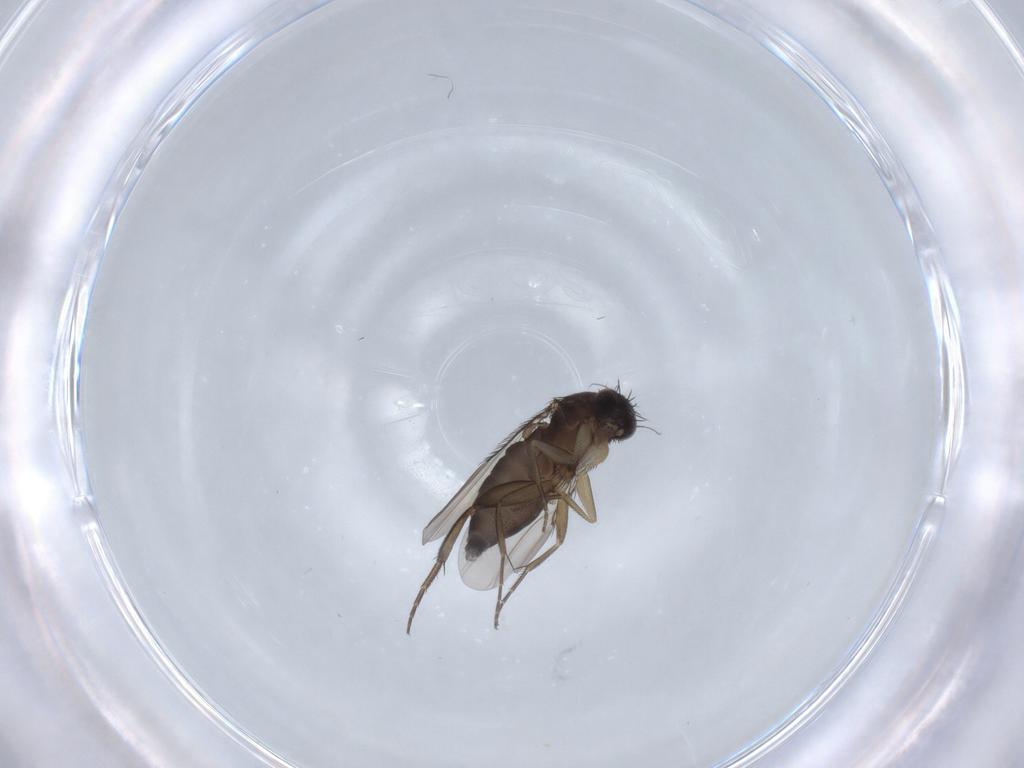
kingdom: Animalia
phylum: Arthropoda
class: Insecta
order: Diptera
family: Phoridae
